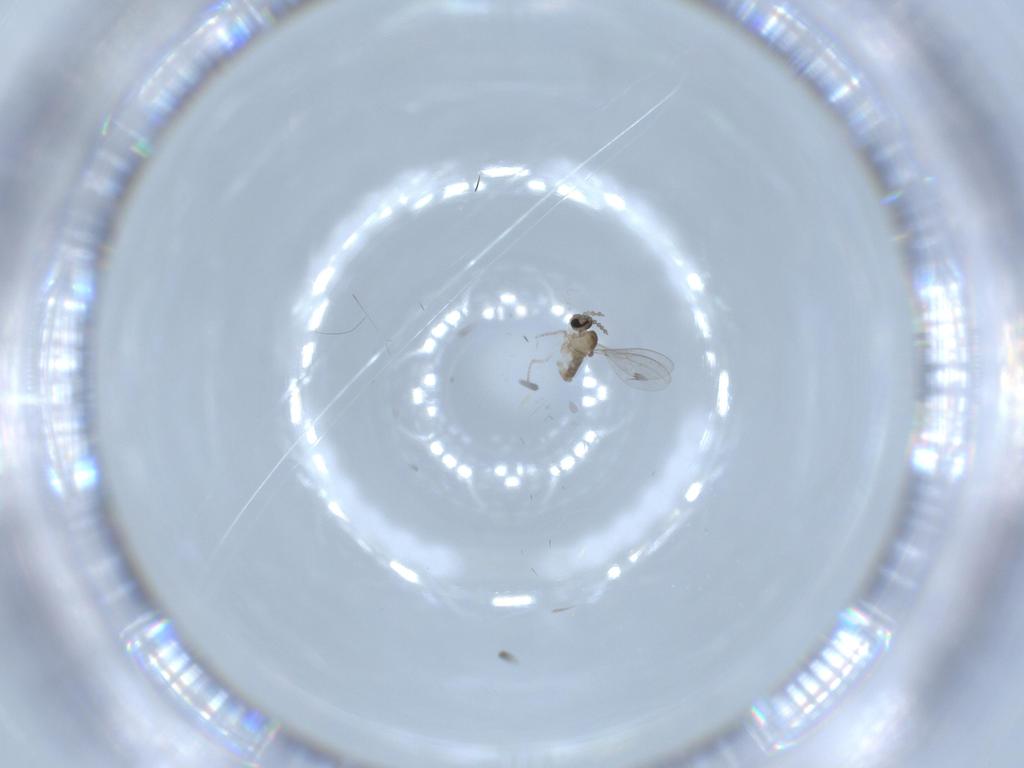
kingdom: Animalia
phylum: Arthropoda
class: Insecta
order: Diptera
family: Cecidomyiidae
